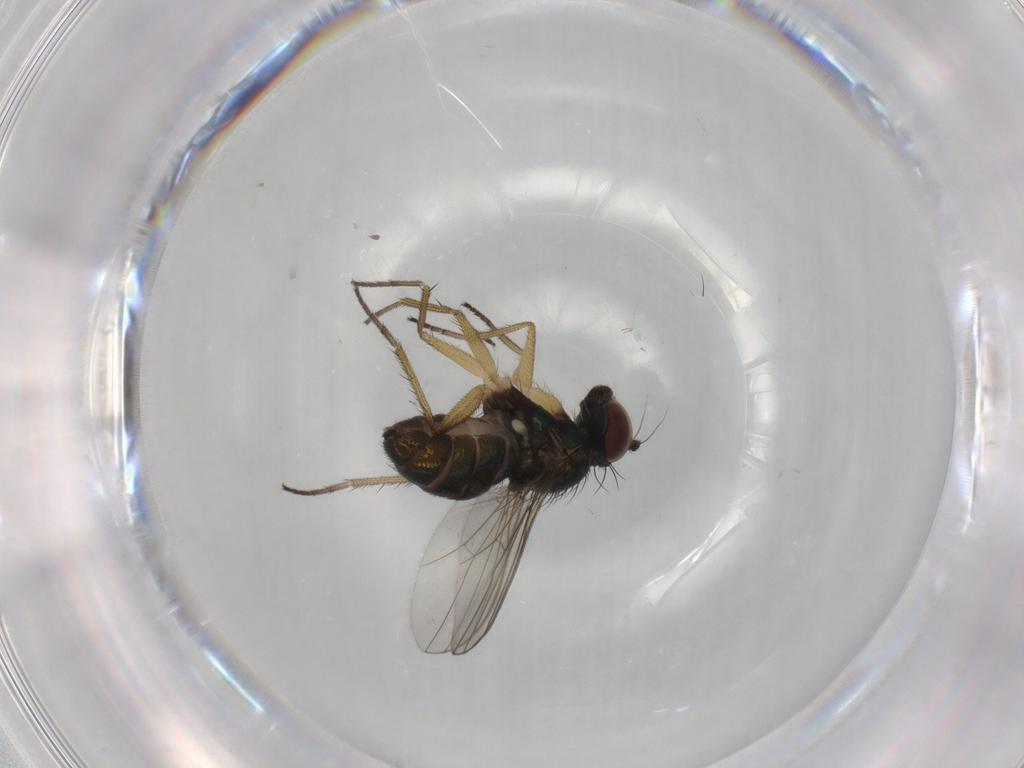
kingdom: Animalia
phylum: Arthropoda
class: Insecta
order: Diptera
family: Dolichopodidae
